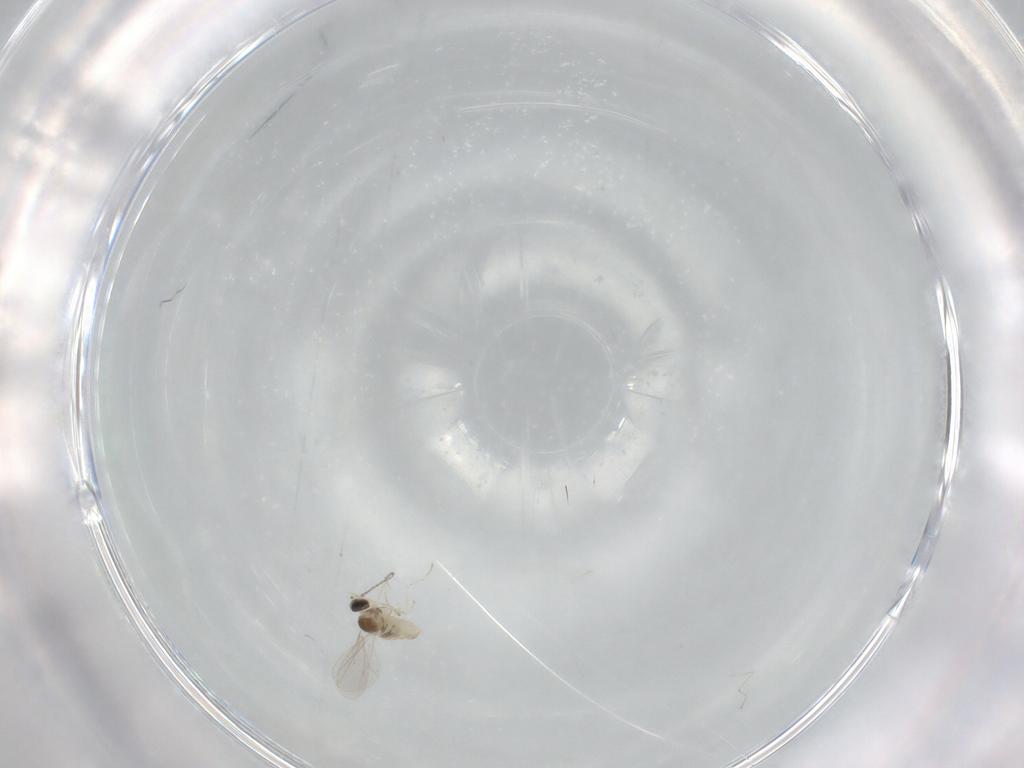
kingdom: Animalia
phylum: Arthropoda
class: Insecta
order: Diptera
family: Cecidomyiidae
